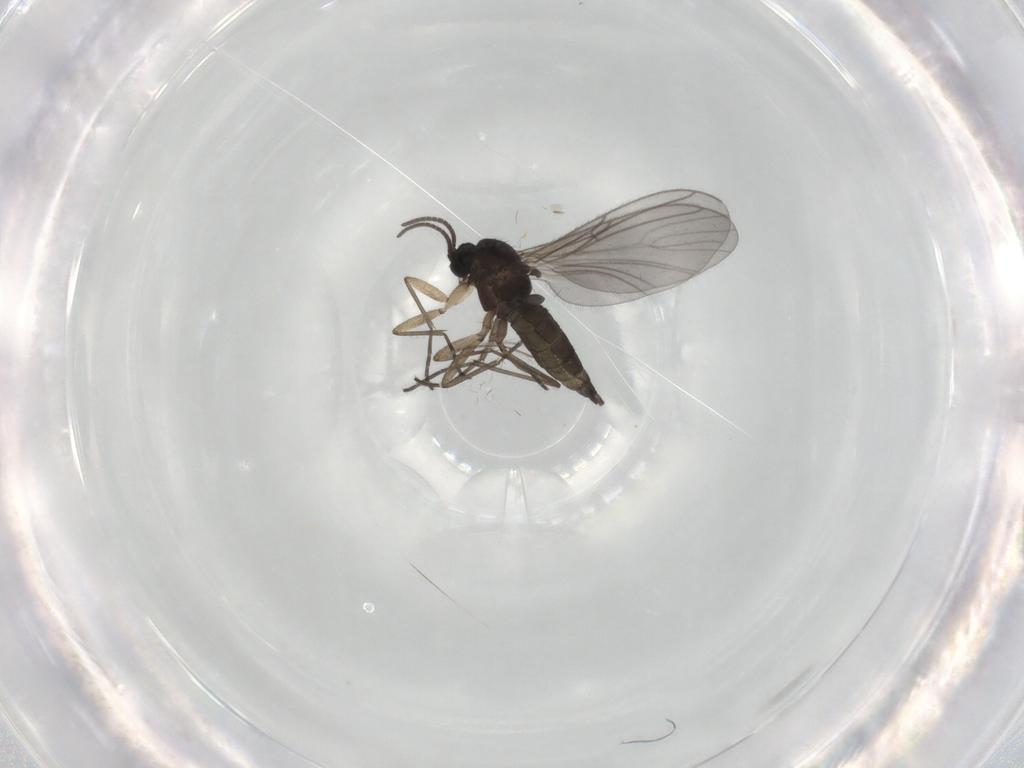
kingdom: Animalia
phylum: Arthropoda
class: Insecta
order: Diptera
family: Sciaridae
